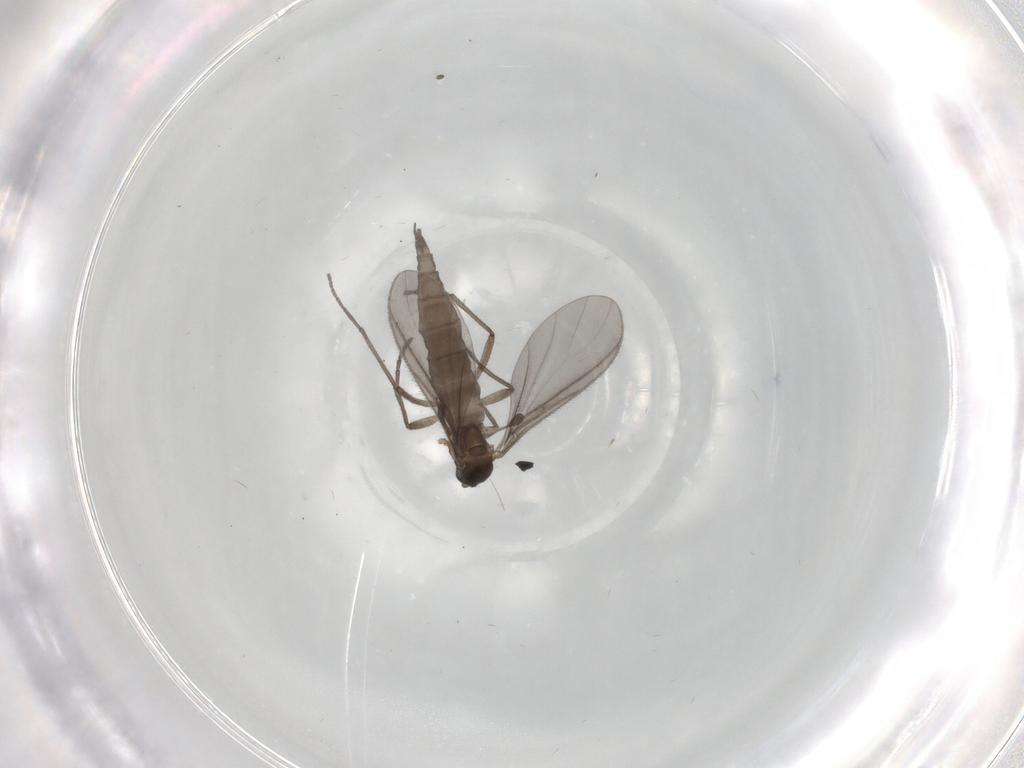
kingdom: Animalia
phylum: Arthropoda
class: Insecta
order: Diptera
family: Sciaridae
